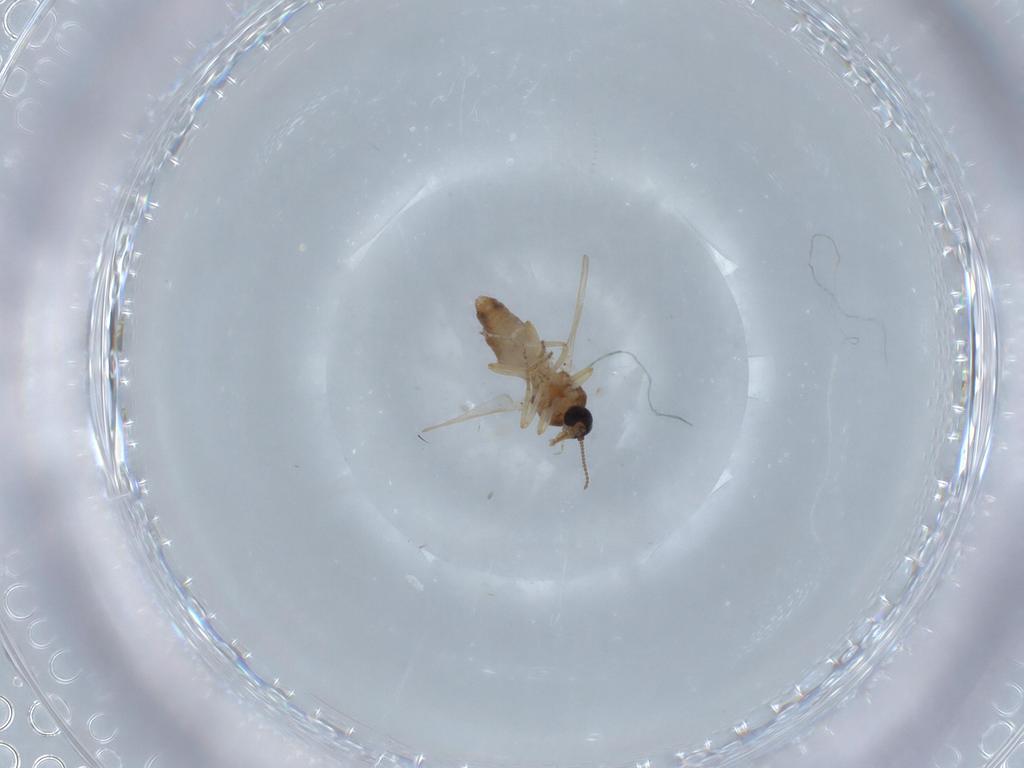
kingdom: Animalia
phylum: Arthropoda
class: Insecta
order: Diptera
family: Ceratopogonidae
